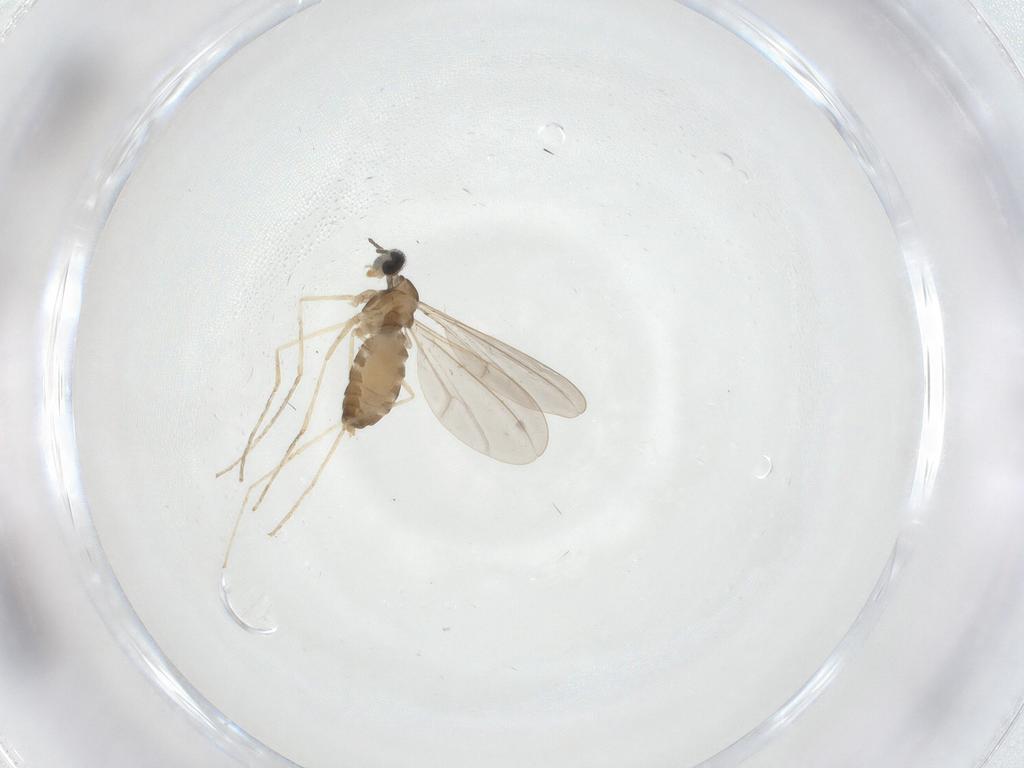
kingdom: Animalia
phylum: Arthropoda
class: Insecta
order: Diptera
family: Cecidomyiidae
